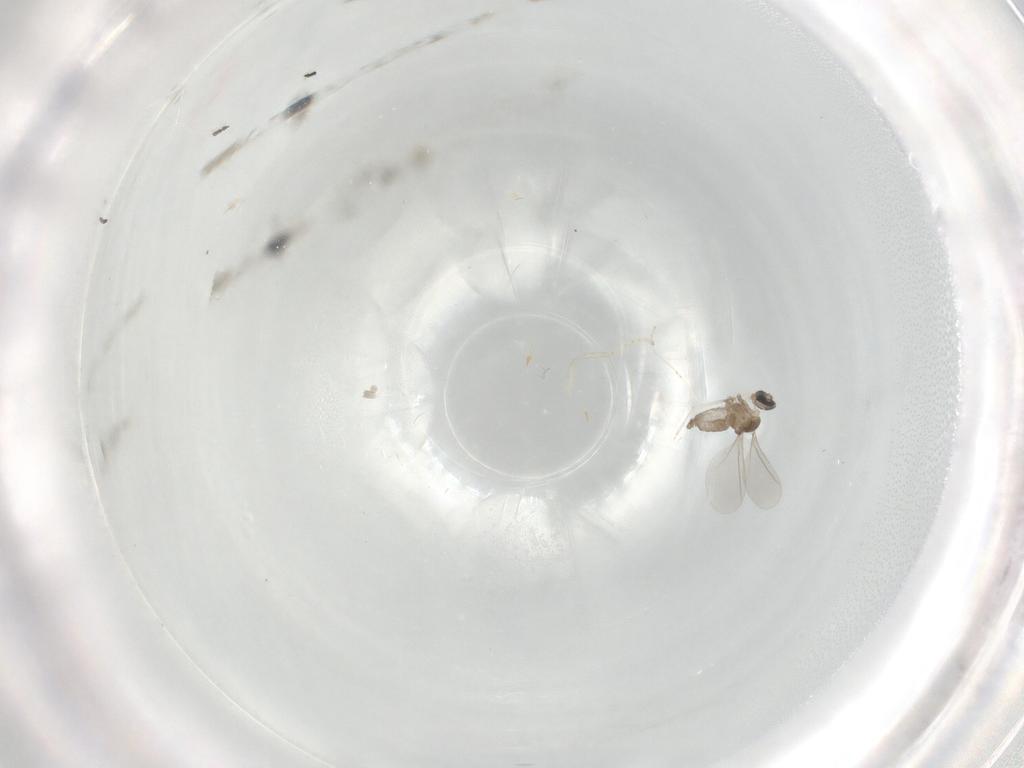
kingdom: Animalia
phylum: Arthropoda
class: Insecta
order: Diptera
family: Cecidomyiidae
